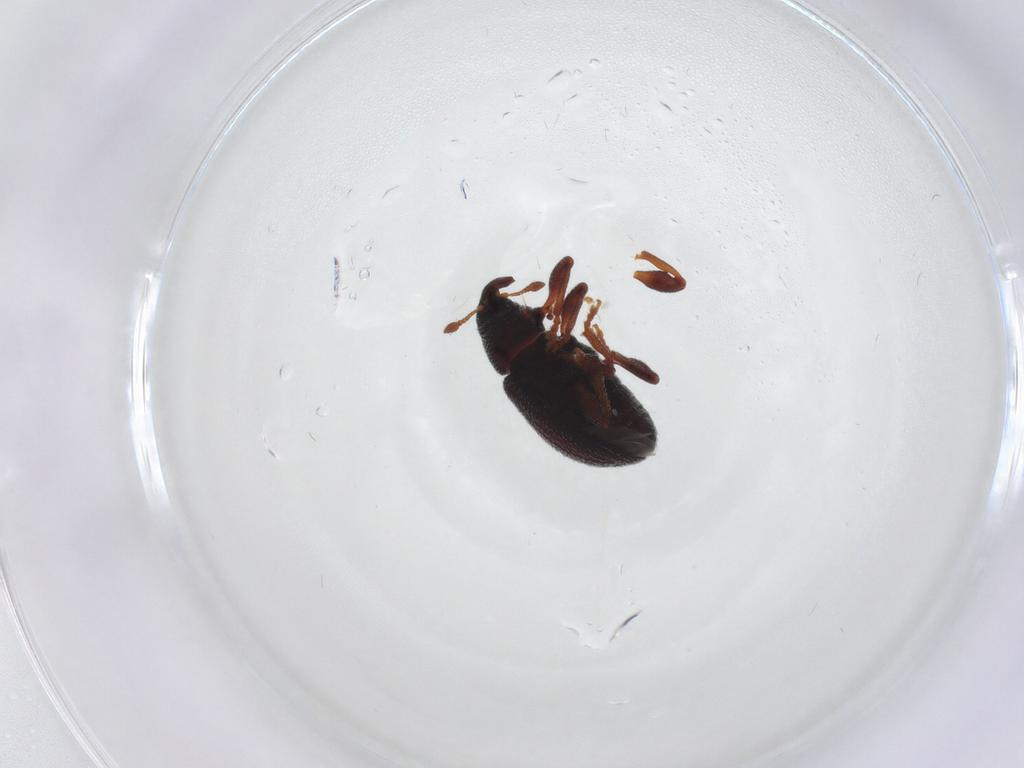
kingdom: Animalia
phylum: Arthropoda
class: Insecta
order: Coleoptera
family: Curculionidae
